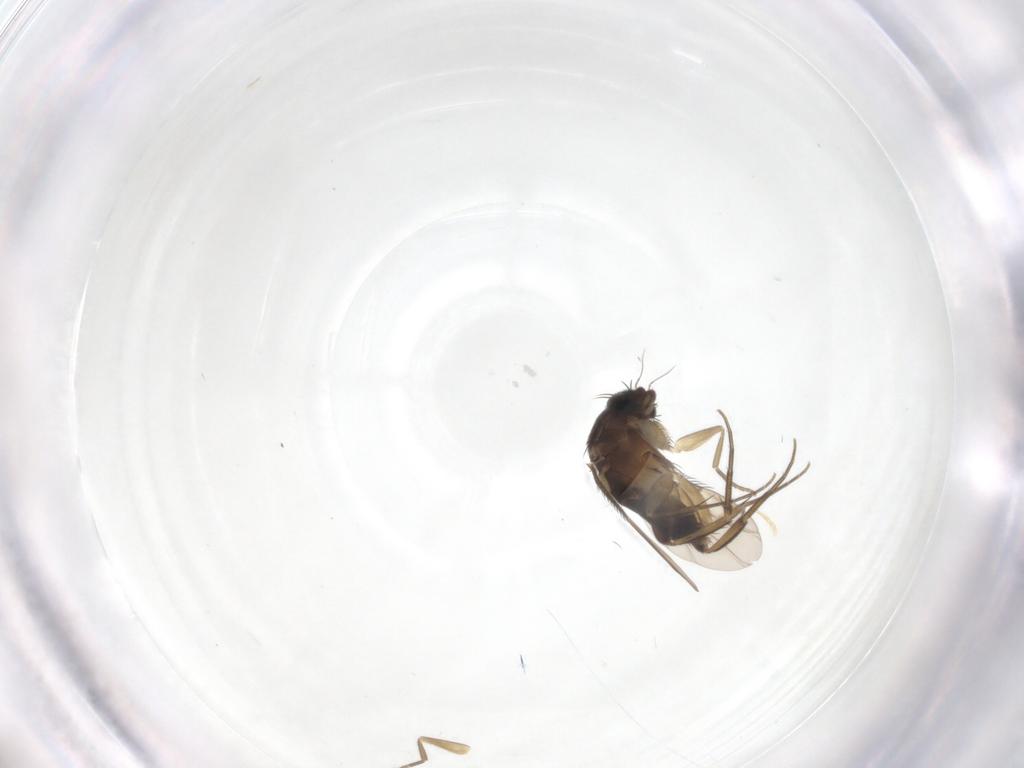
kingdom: Animalia
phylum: Arthropoda
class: Insecta
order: Diptera
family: Phoridae
